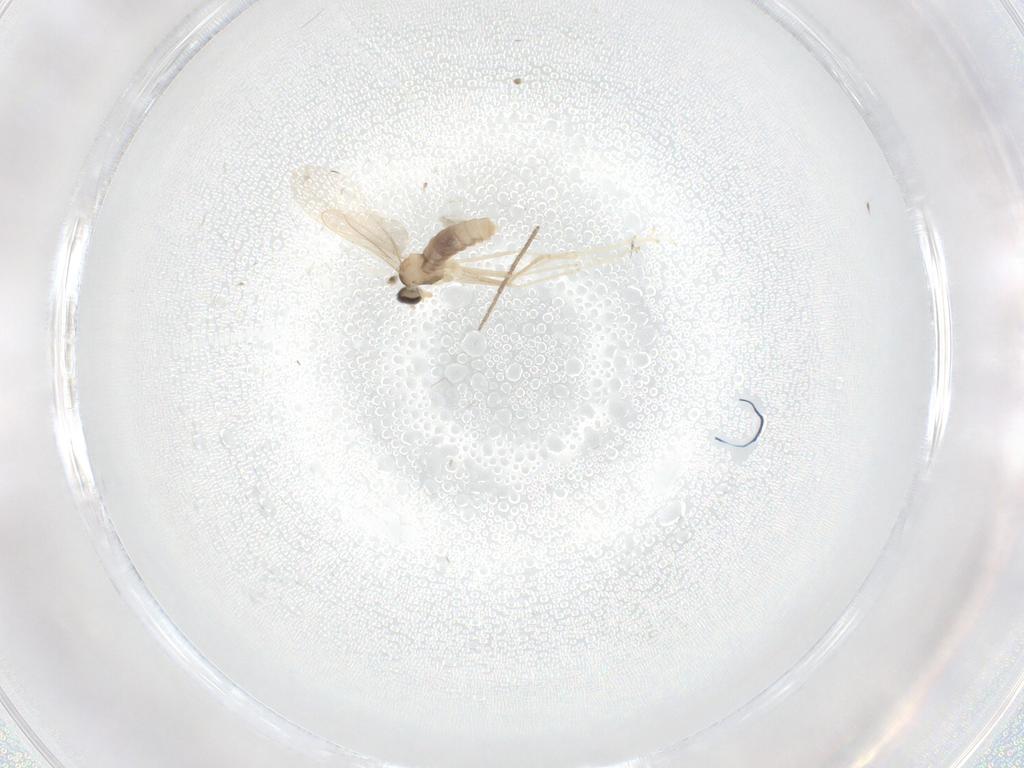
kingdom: Animalia
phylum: Arthropoda
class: Insecta
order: Diptera
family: Cecidomyiidae
